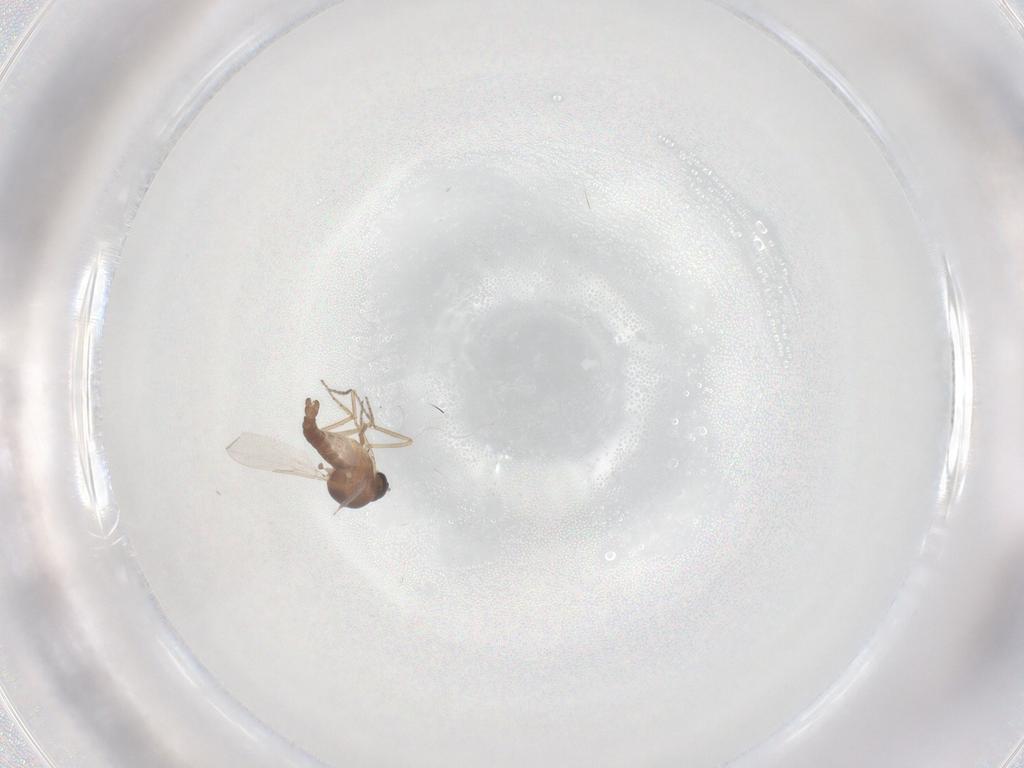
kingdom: Animalia
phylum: Arthropoda
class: Insecta
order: Diptera
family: Ceratopogonidae
